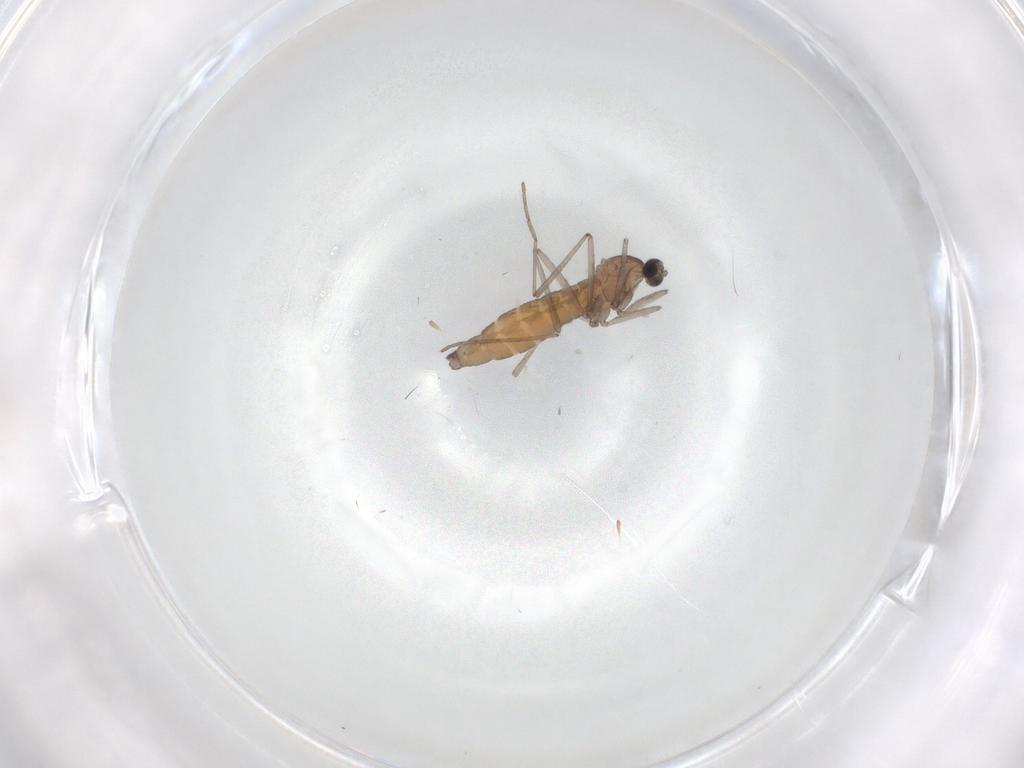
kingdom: Animalia
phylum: Arthropoda
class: Insecta
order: Diptera
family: Cecidomyiidae
